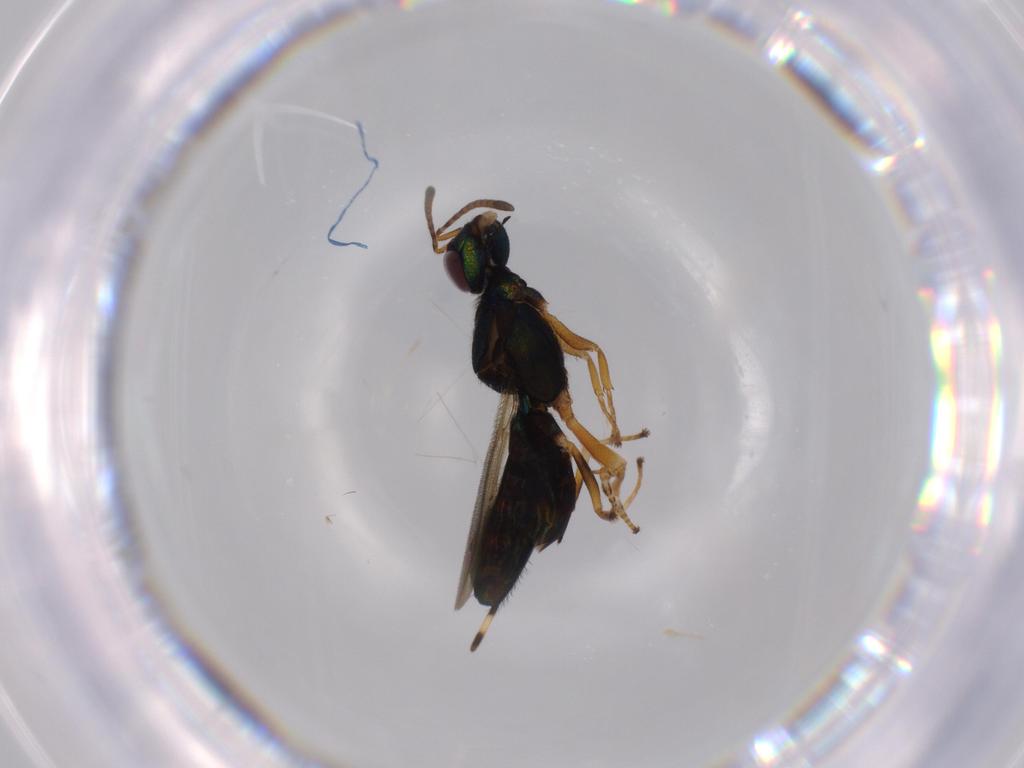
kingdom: Animalia
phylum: Arthropoda
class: Insecta
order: Hymenoptera
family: Eupelmidae
